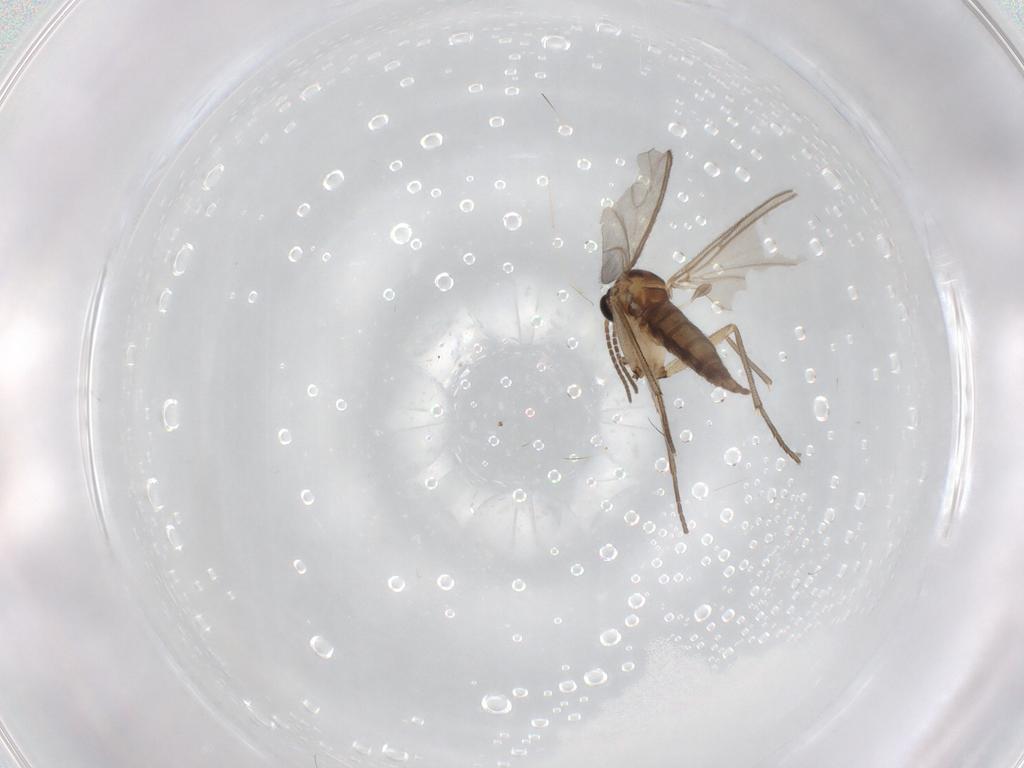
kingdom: Animalia
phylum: Arthropoda
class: Insecta
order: Diptera
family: Sciaridae
